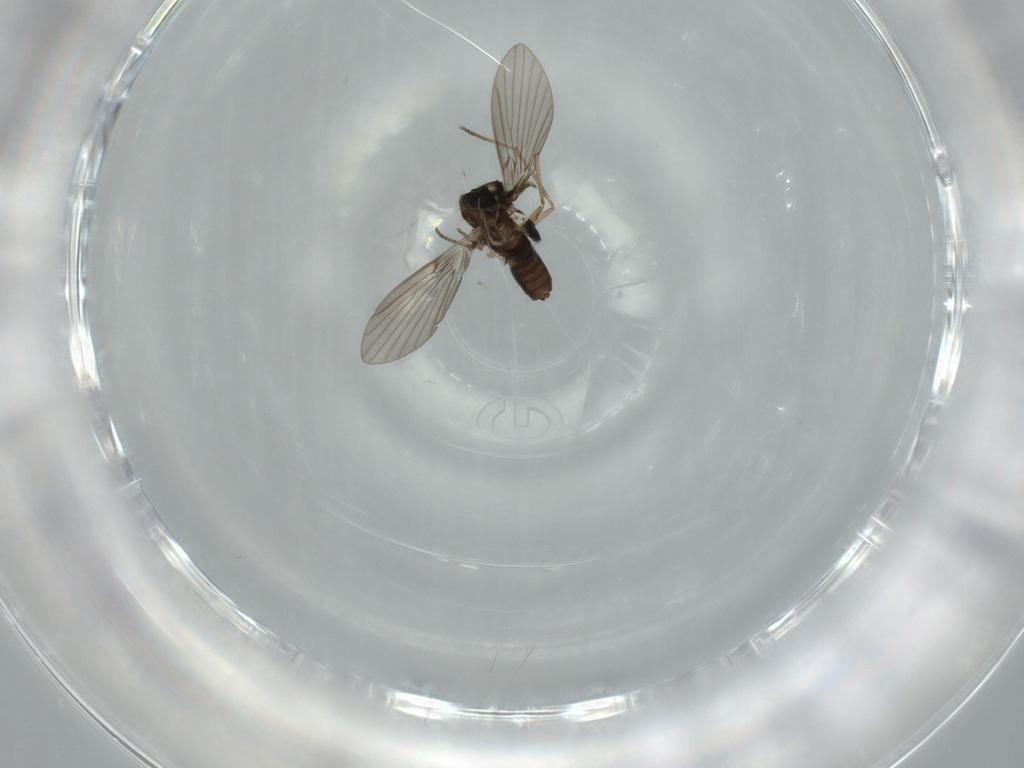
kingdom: Animalia
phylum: Arthropoda
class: Insecta
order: Diptera
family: Psychodidae
